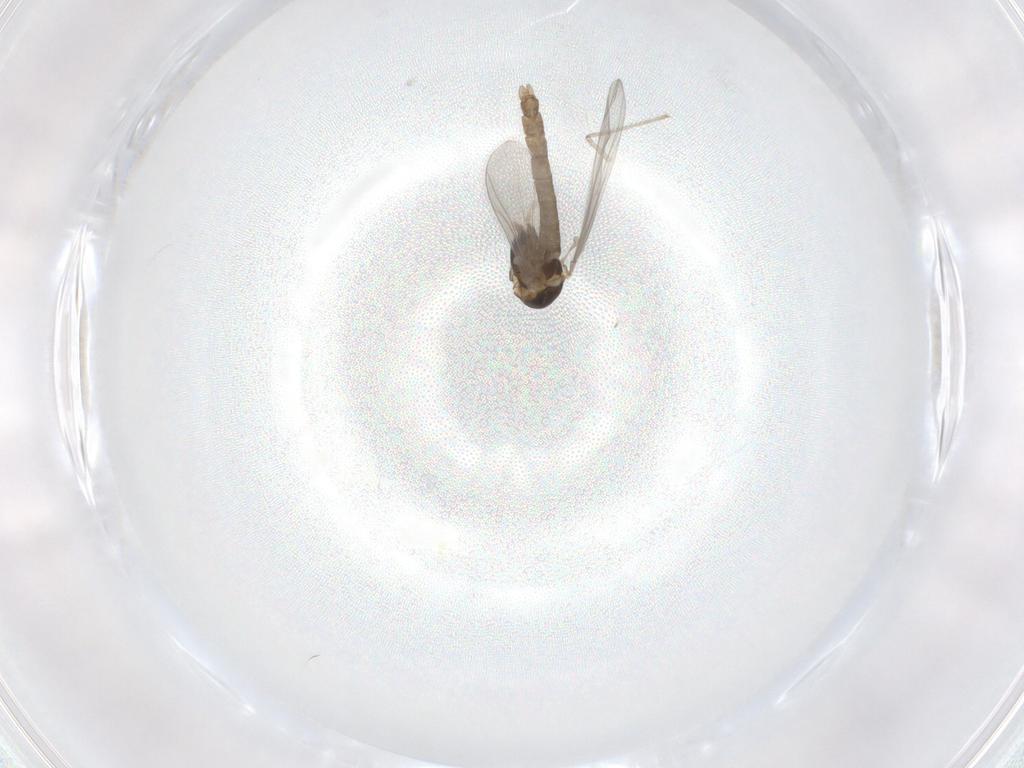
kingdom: Animalia
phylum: Arthropoda
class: Insecta
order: Diptera
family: Chironomidae
